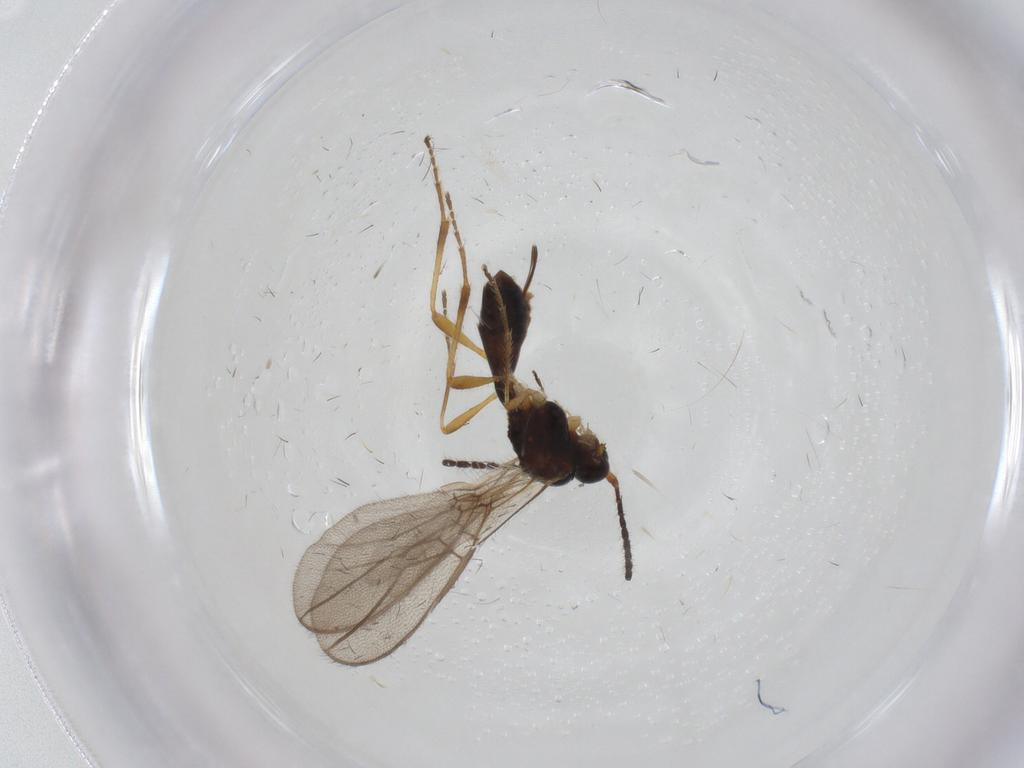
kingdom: Animalia
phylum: Arthropoda
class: Insecta
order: Hymenoptera
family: Braconidae
